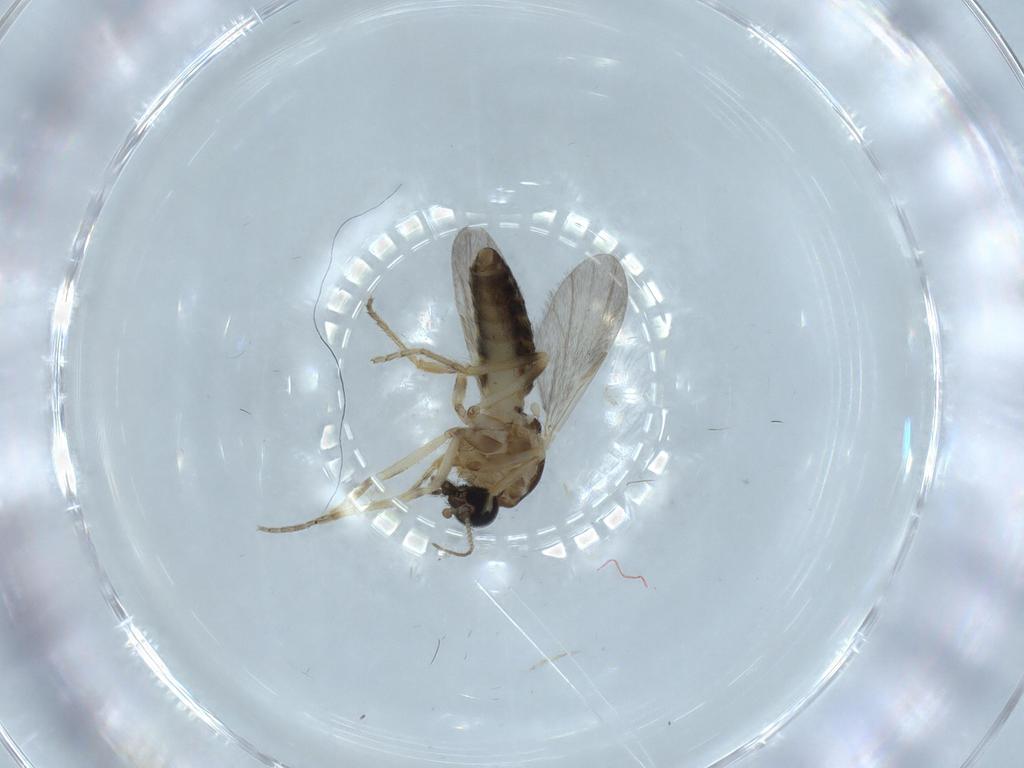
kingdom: Animalia
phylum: Arthropoda
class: Insecta
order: Diptera
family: Ceratopogonidae
